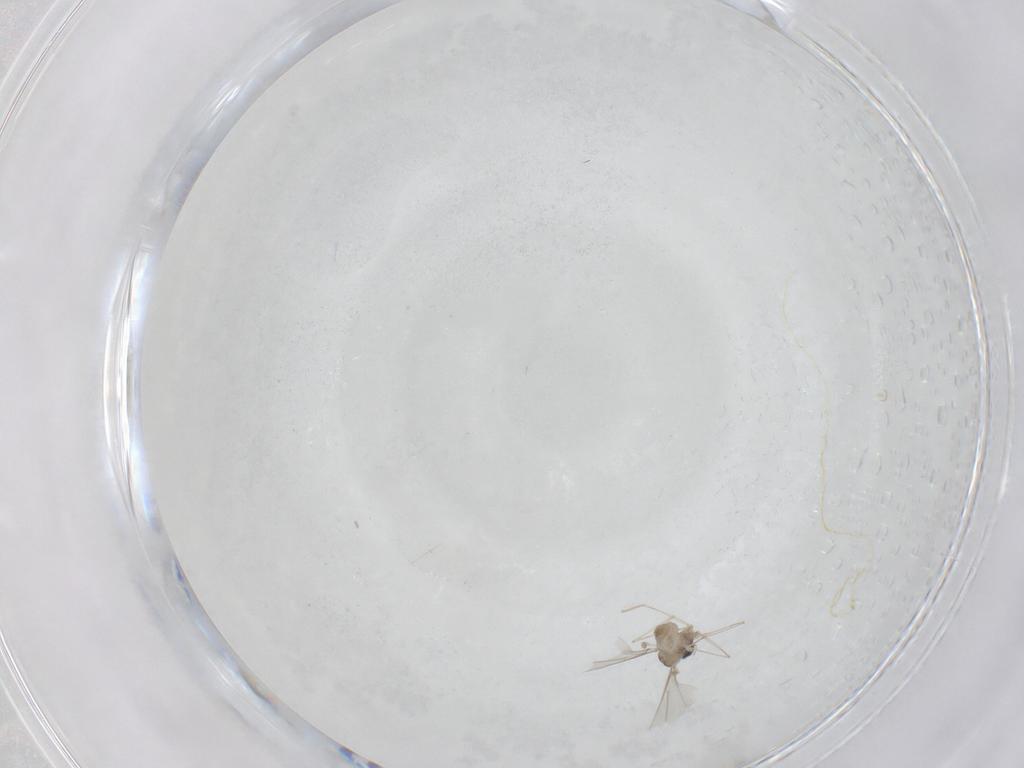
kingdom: Animalia
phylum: Arthropoda
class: Insecta
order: Diptera
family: Cecidomyiidae
